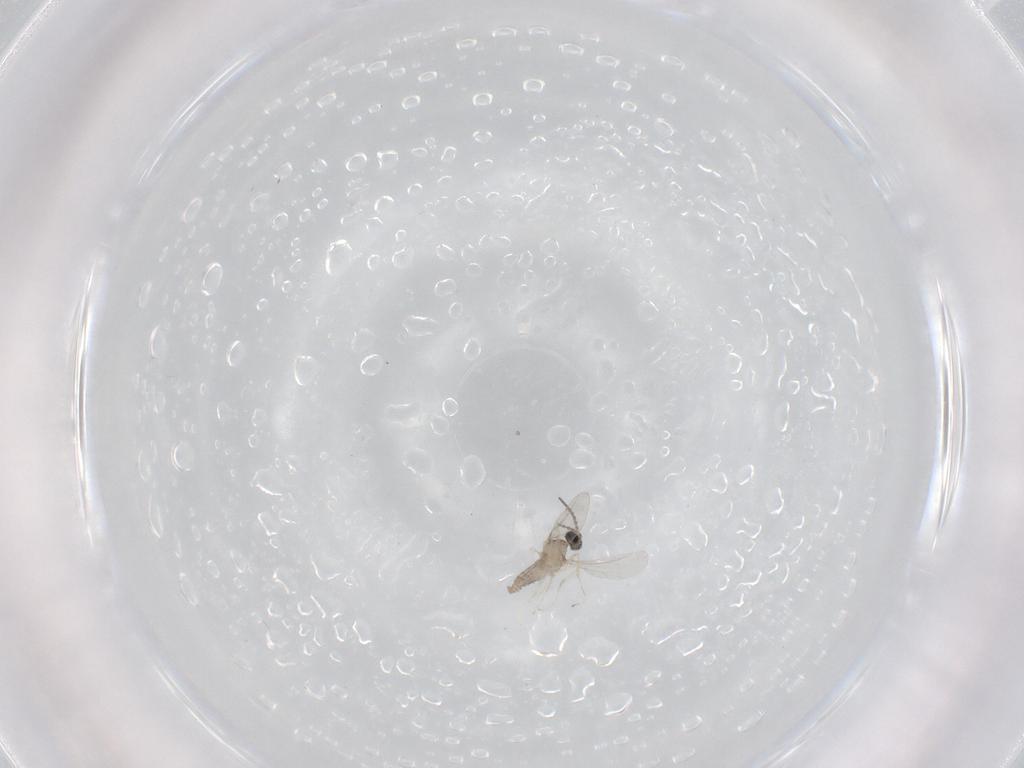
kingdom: Animalia
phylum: Arthropoda
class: Insecta
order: Diptera
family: Cecidomyiidae
